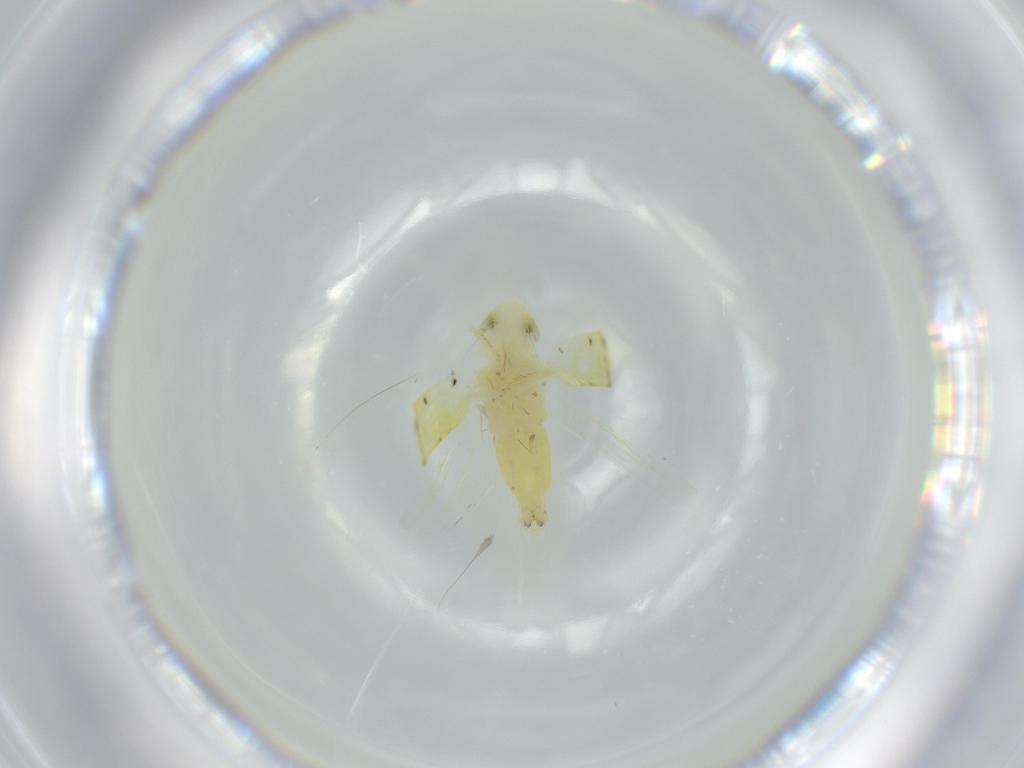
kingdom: Animalia
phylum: Arthropoda
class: Insecta
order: Hemiptera
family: Cicadellidae
